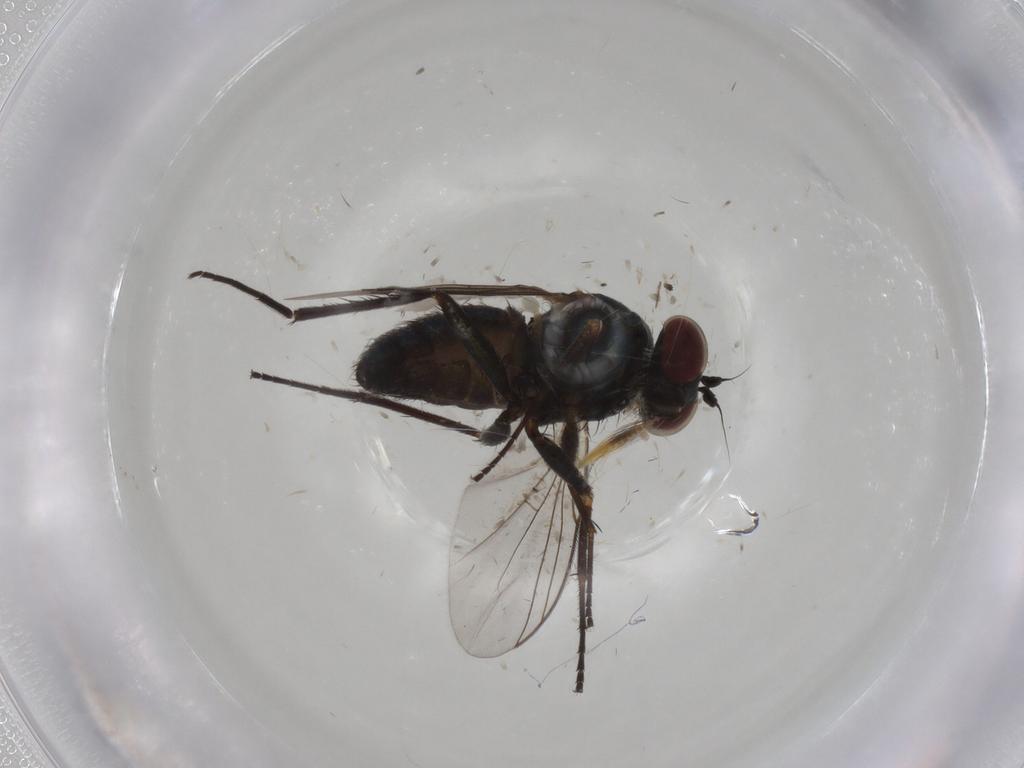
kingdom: Animalia
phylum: Arthropoda
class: Insecta
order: Diptera
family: Dolichopodidae
